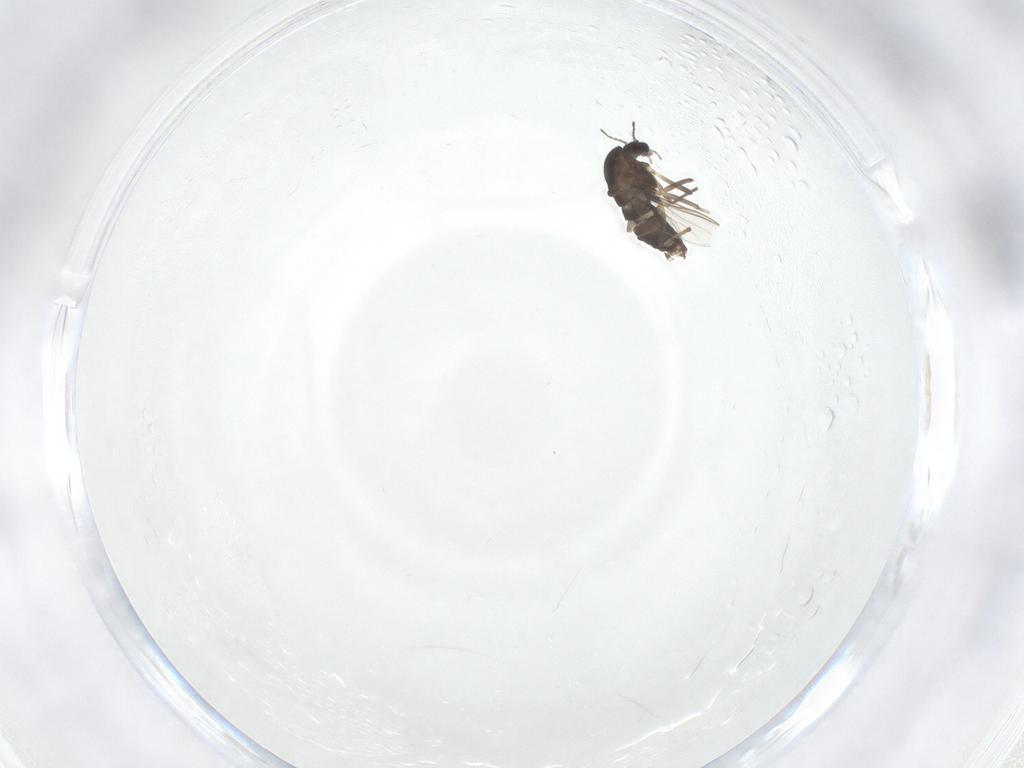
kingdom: Animalia
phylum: Arthropoda
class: Insecta
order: Diptera
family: Chironomidae
